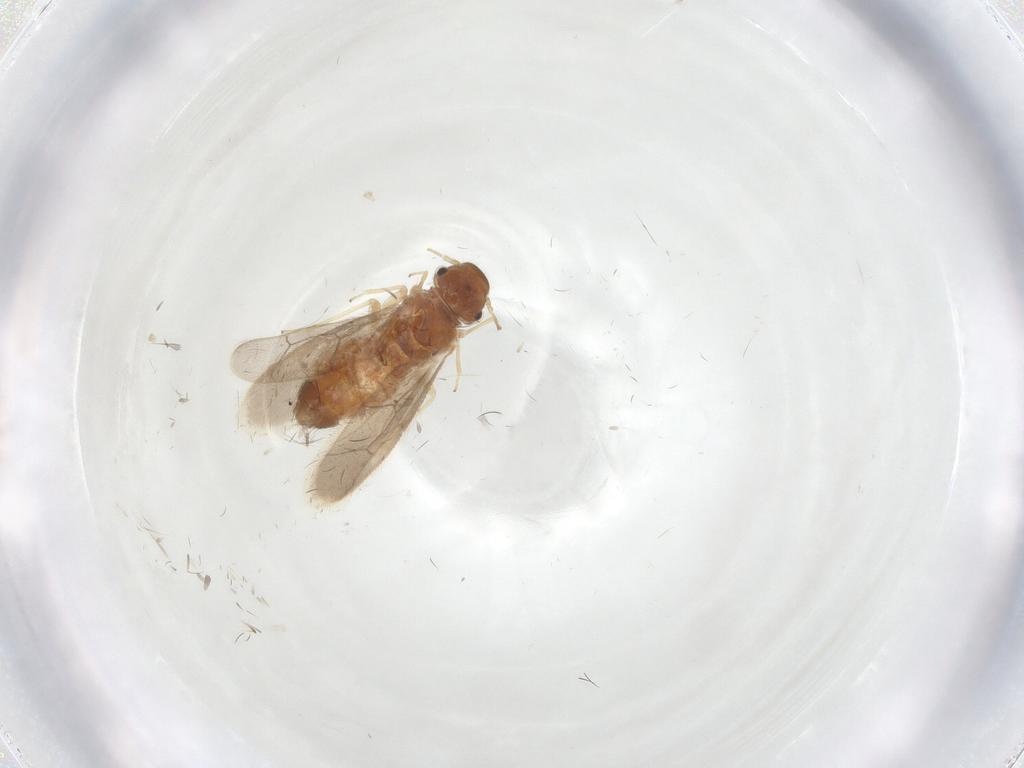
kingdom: Animalia
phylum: Arthropoda
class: Insecta
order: Psocodea
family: Archipsocidae
